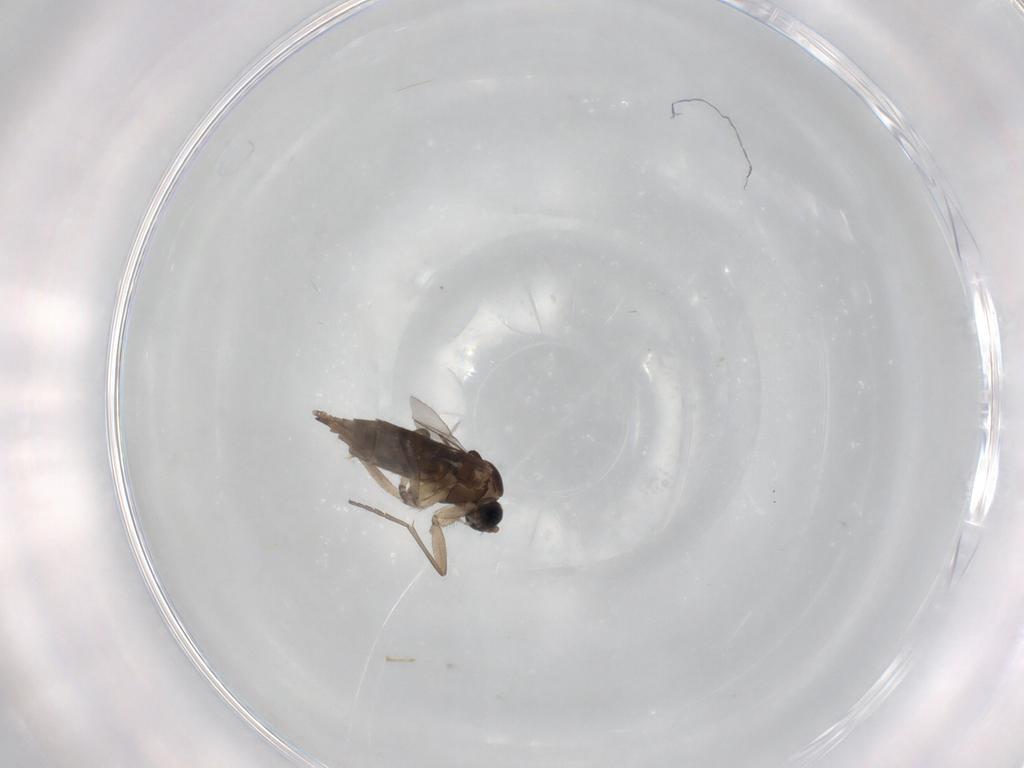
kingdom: Animalia
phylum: Arthropoda
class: Insecta
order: Diptera
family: Sciaridae
